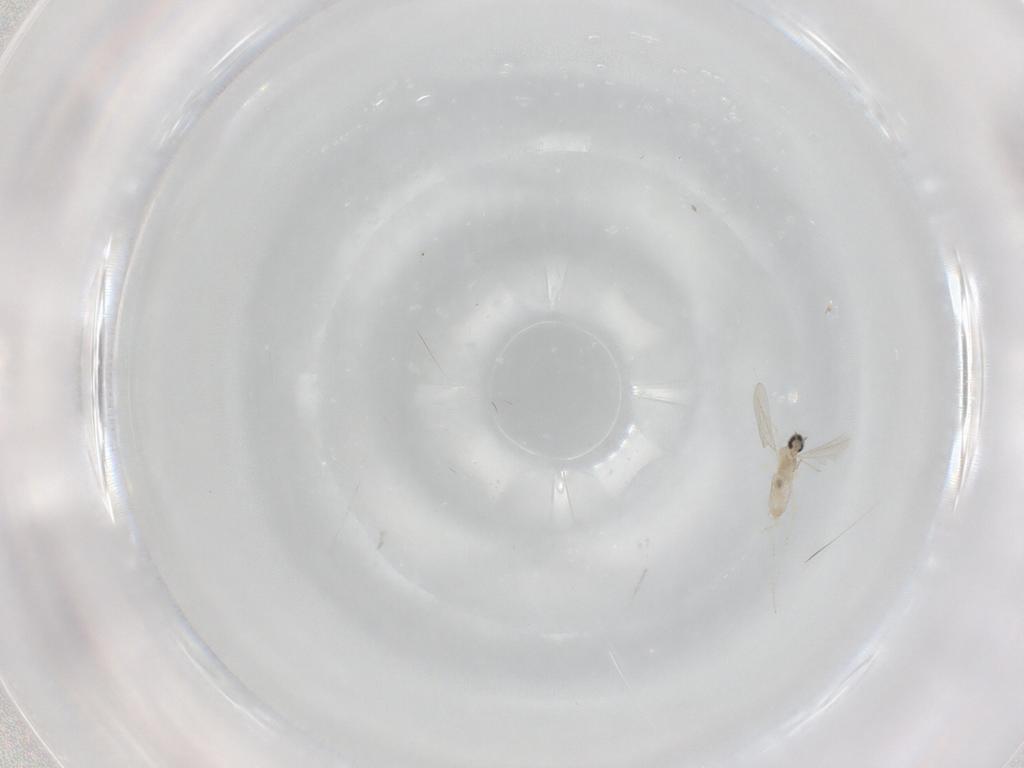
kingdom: Animalia
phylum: Arthropoda
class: Insecta
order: Diptera
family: Cecidomyiidae
